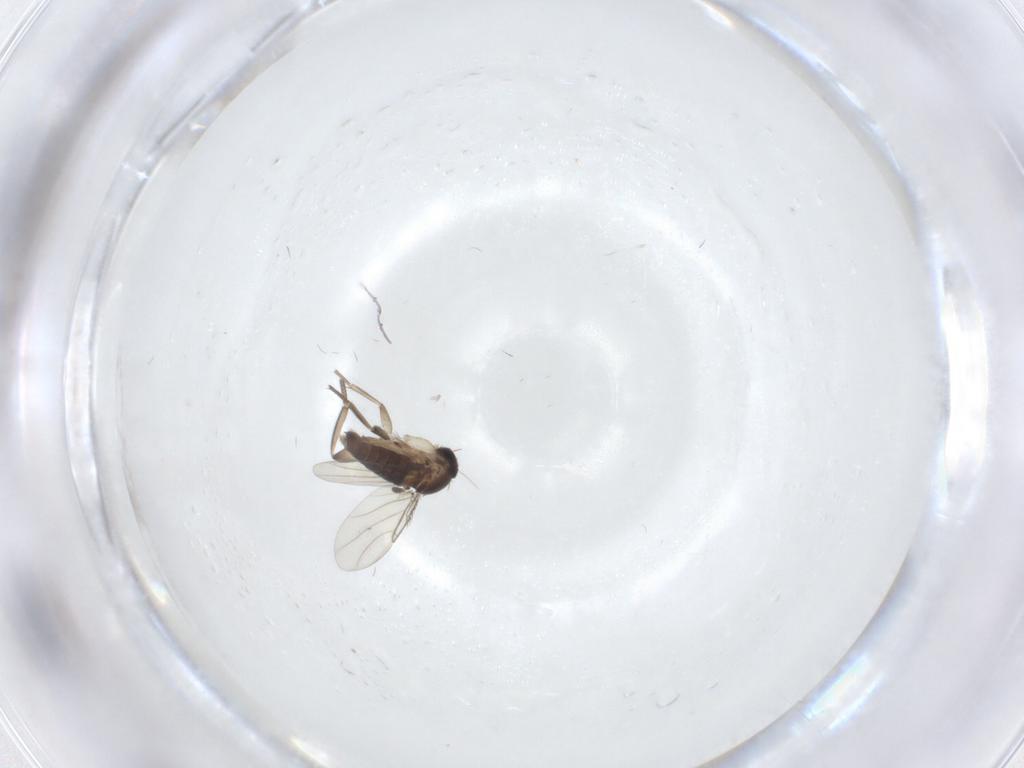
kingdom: Animalia
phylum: Arthropoda
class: Insecta
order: Diptera
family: Phoridae
